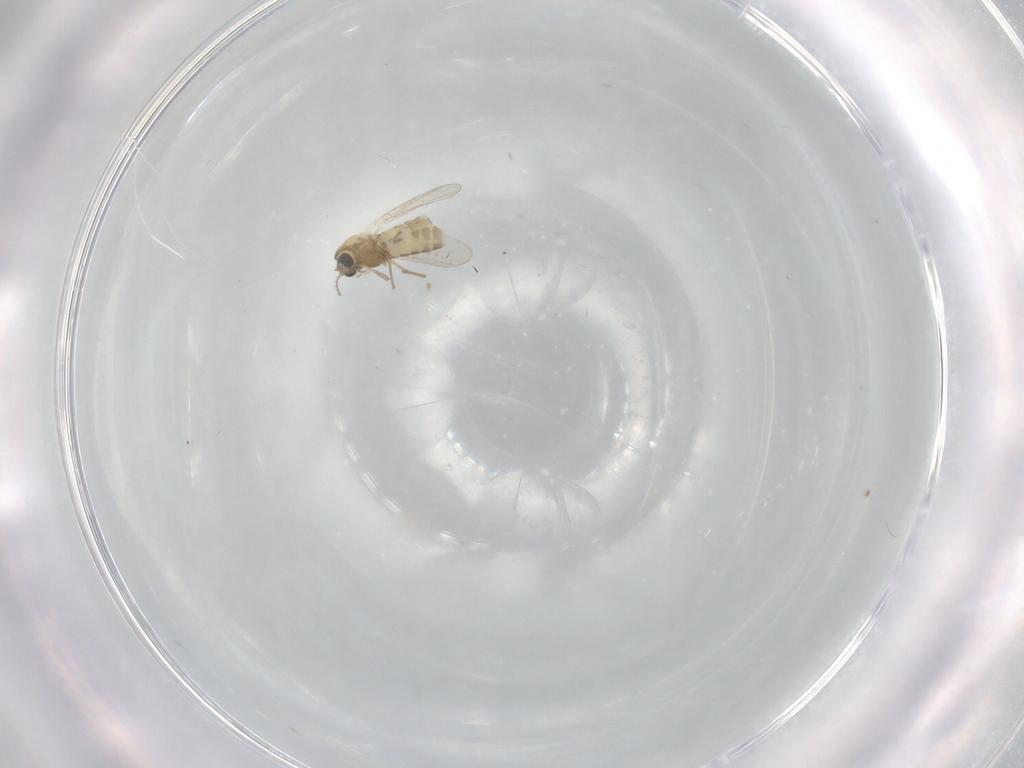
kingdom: Animalia
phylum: Arthropoda
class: Insecta
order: Diptera
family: Chironomidae
